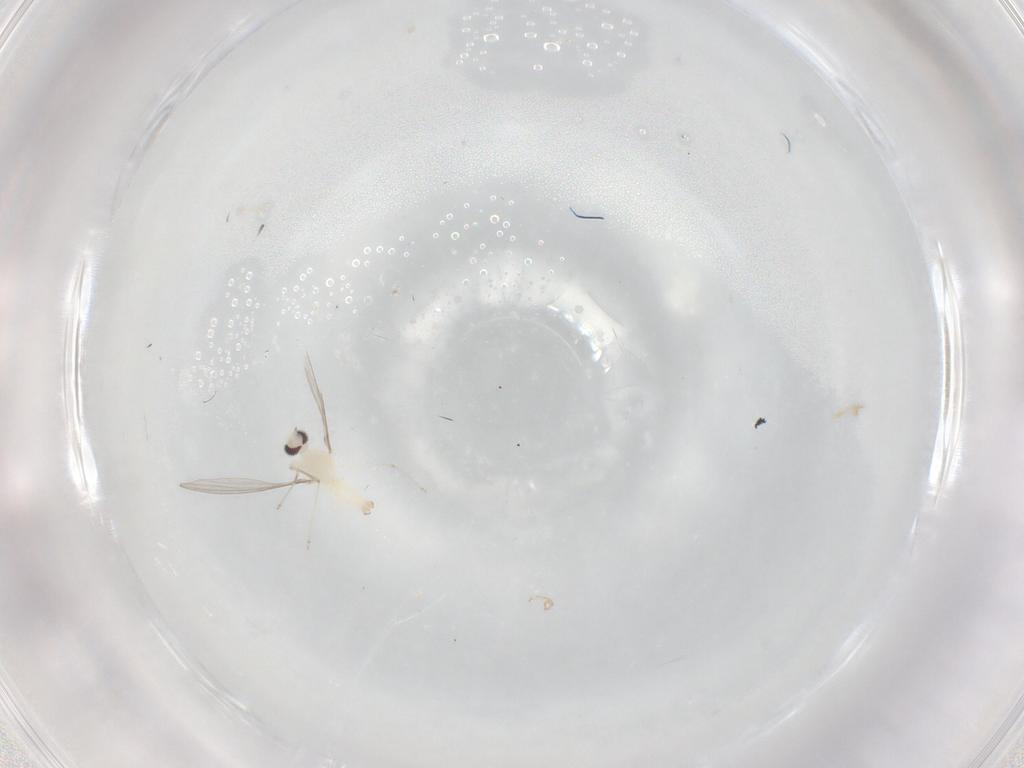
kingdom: Animalia
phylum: Arthropoda
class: Insecta
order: Diptera
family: Cecidomyiidae
